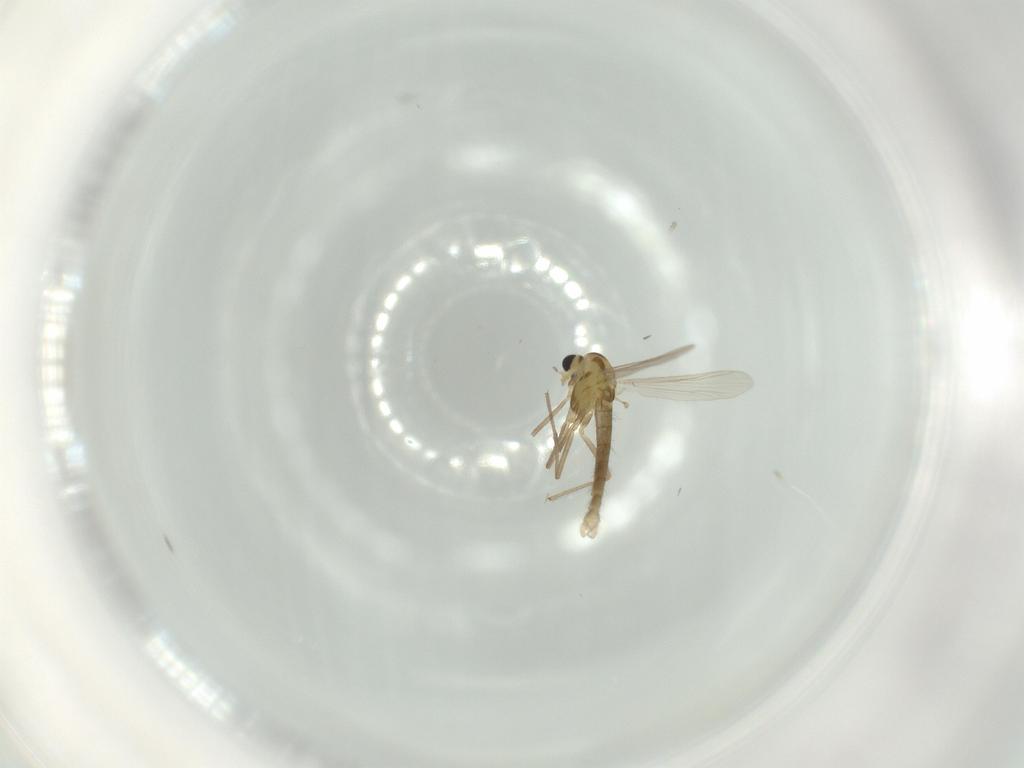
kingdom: Animalia
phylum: Arthropoda
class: Insecta
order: Diptera
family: Chironomidae
